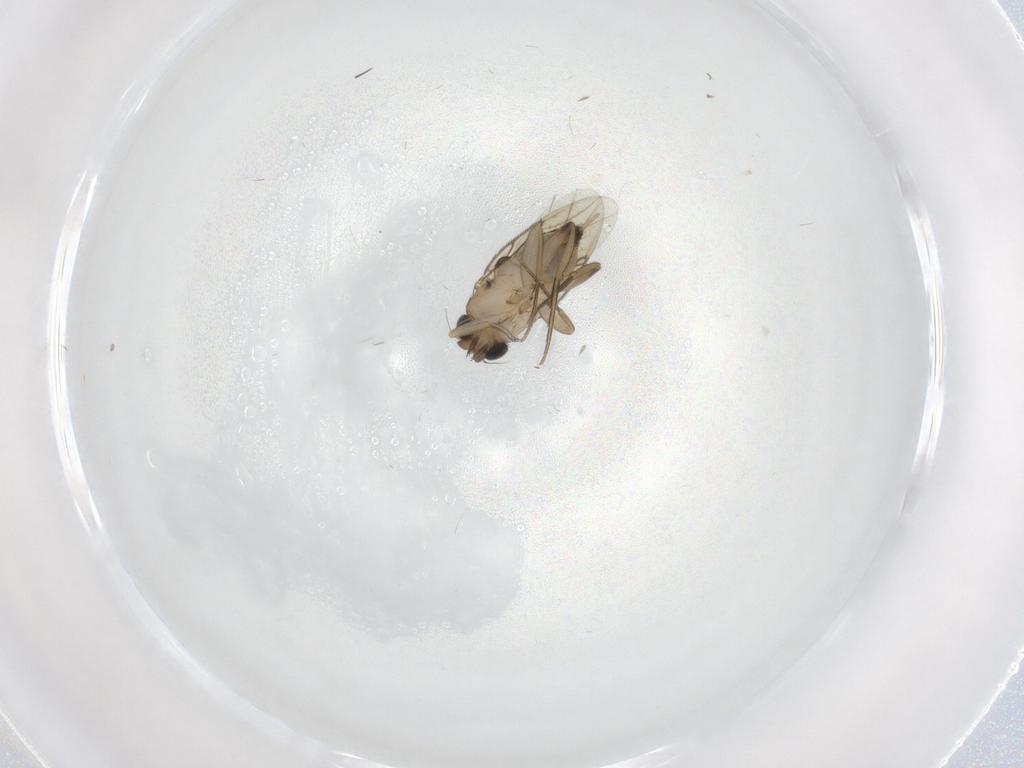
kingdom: Animalia
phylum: Arthropoda
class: Insecta
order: Diptera
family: Phoridae
